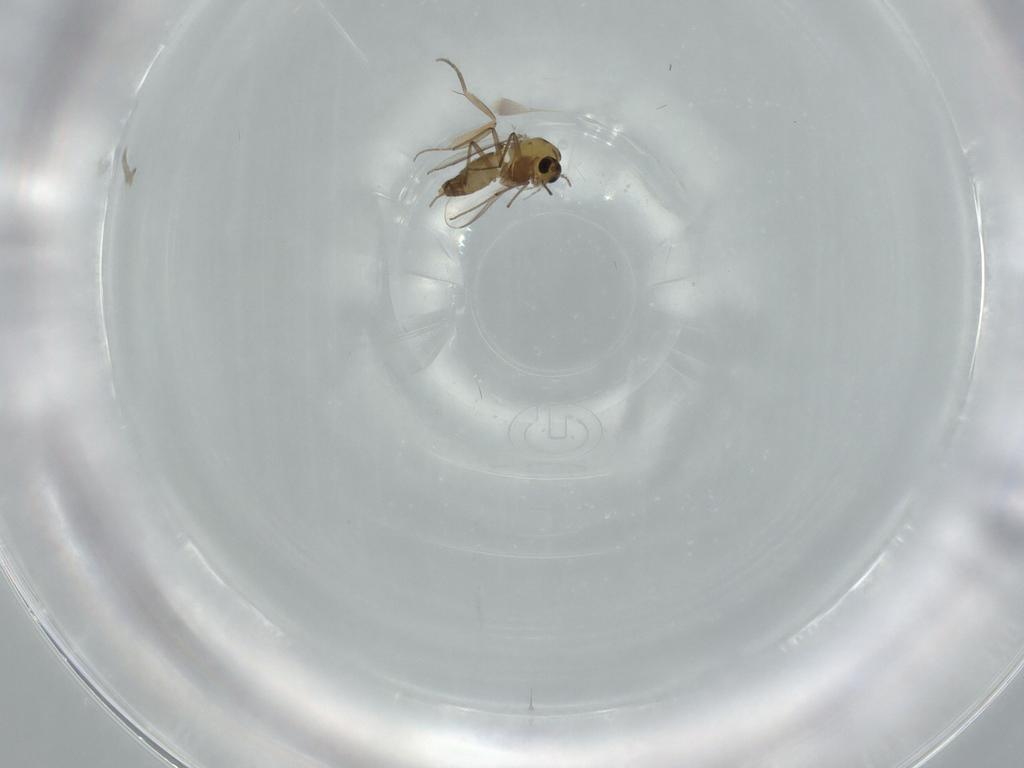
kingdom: Animalia
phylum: Arthropoda
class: Insecta
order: Diptera
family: Chironomidae
